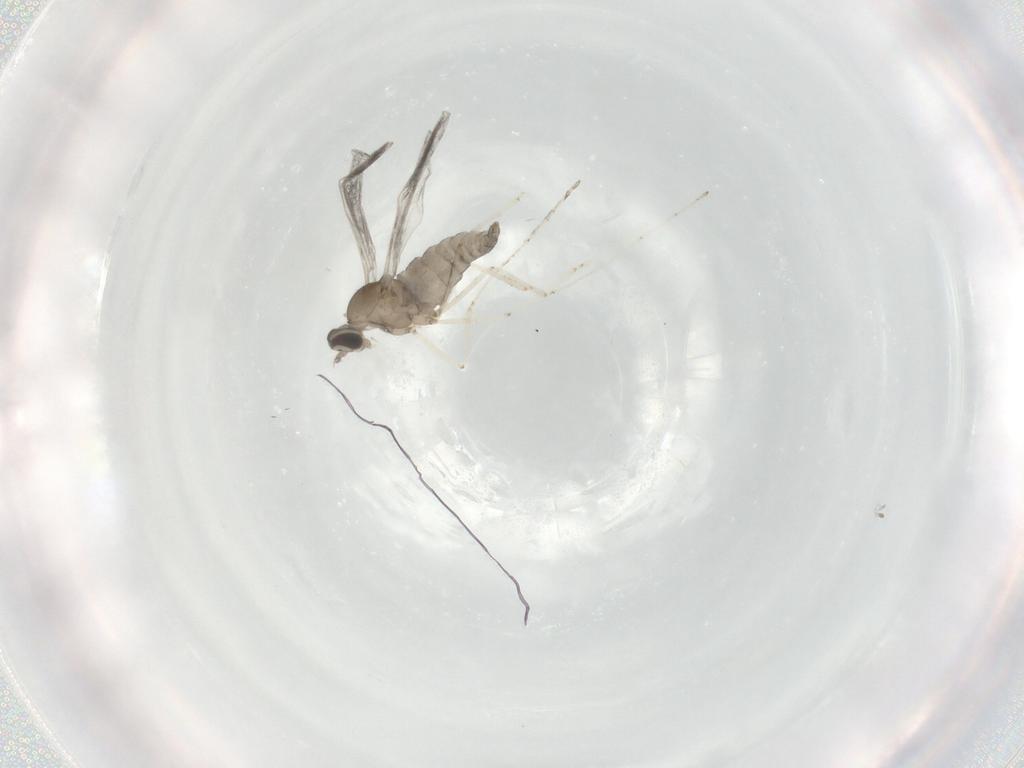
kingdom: Animalia
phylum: Arthropoda
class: Insecta
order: Diptera
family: Cecidomyiidae
